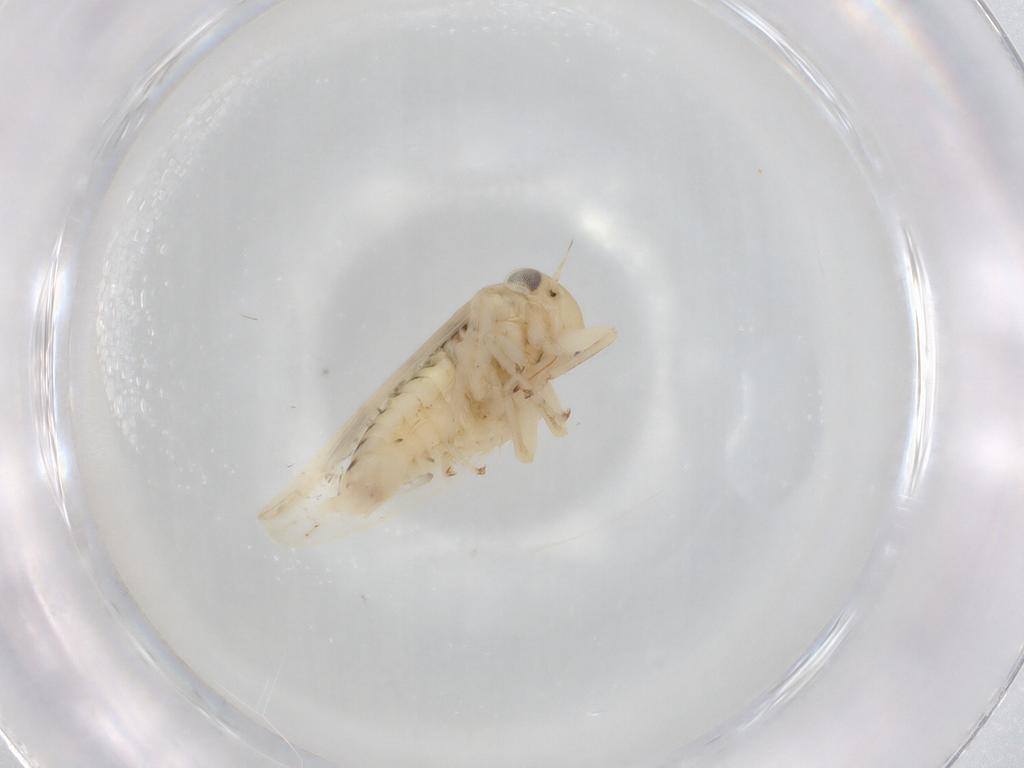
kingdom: Animalia
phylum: Arthropoda
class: Insecta
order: Hemiptera
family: Cicadellidae
